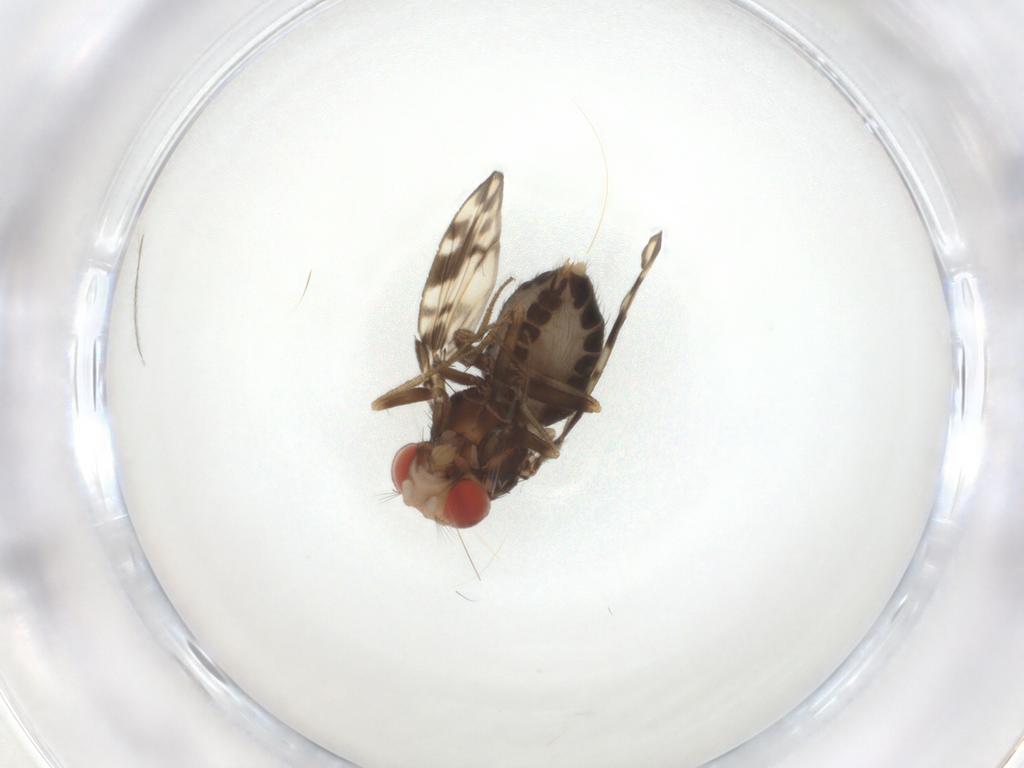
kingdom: Animalia
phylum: Arthropoda
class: Insecta
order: Diptera
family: Drosophilidae
